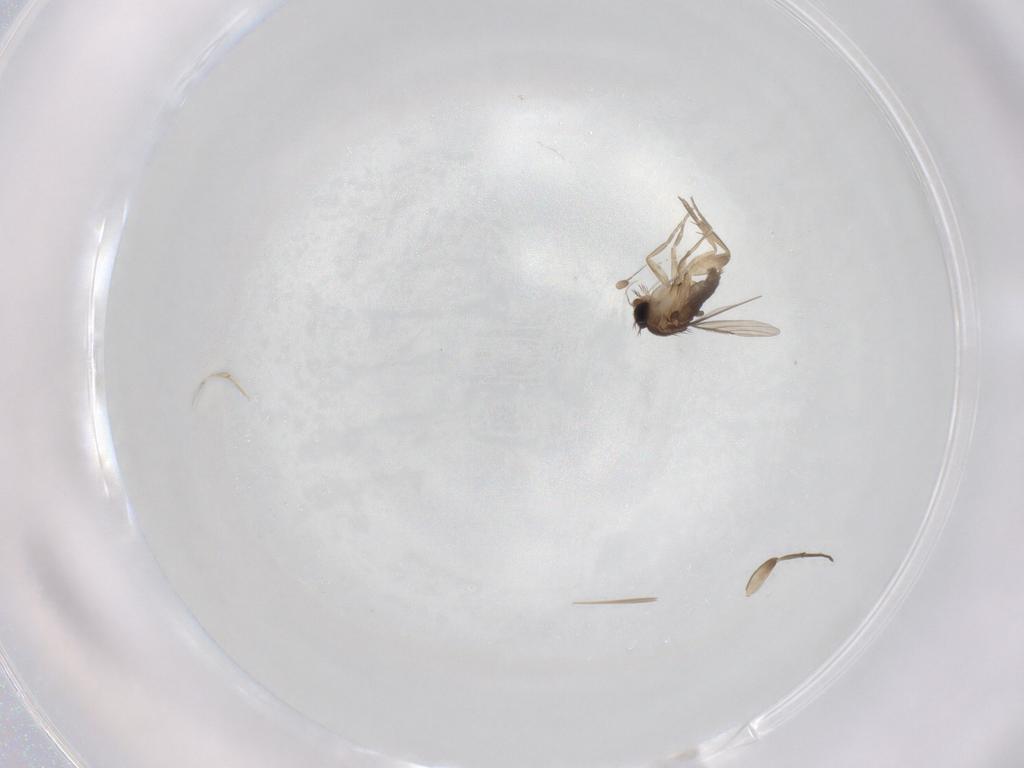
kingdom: Animalia
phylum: Arthropoda
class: Insecta
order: Diptera
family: Chloropidae
